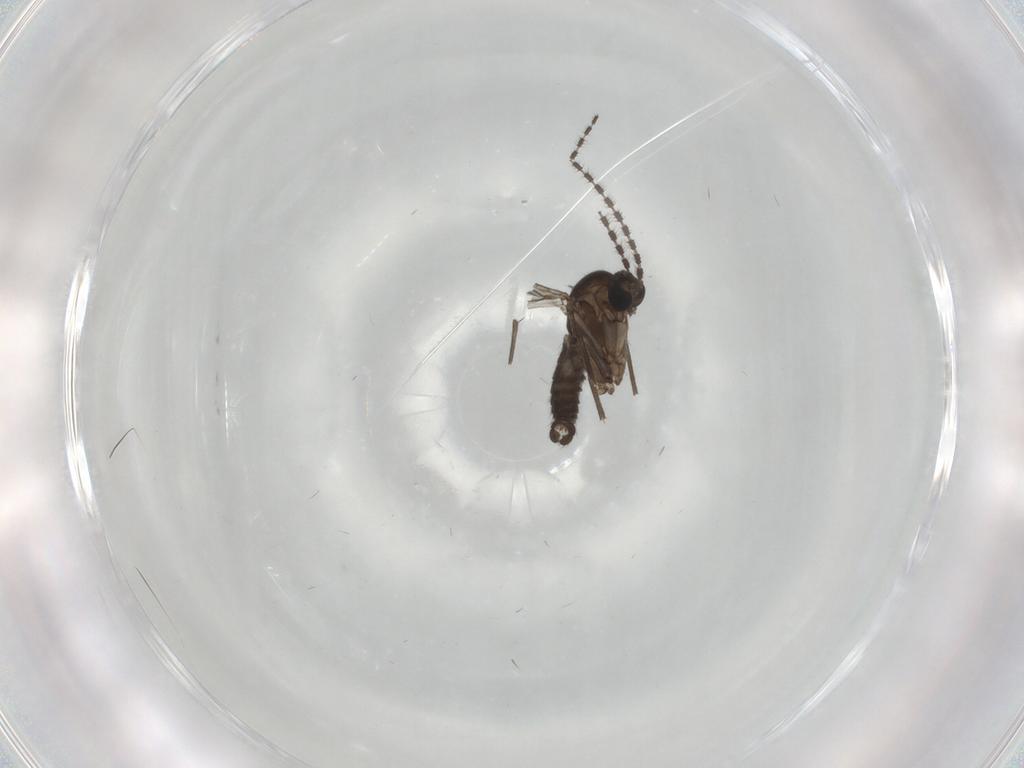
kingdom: Animalia
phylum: Arthropoda
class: Insecta
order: Diptera
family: Sciaridae
